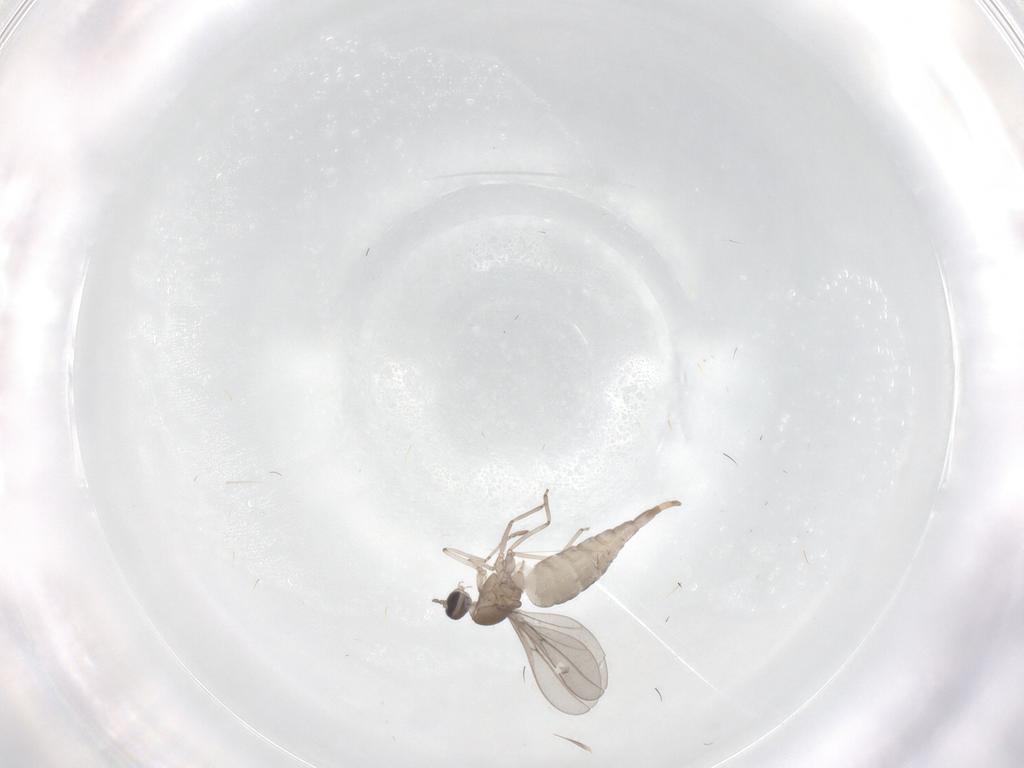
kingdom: Animalia
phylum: Arthropoda
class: Insecta
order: Diptera
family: Cecidomyiidae
